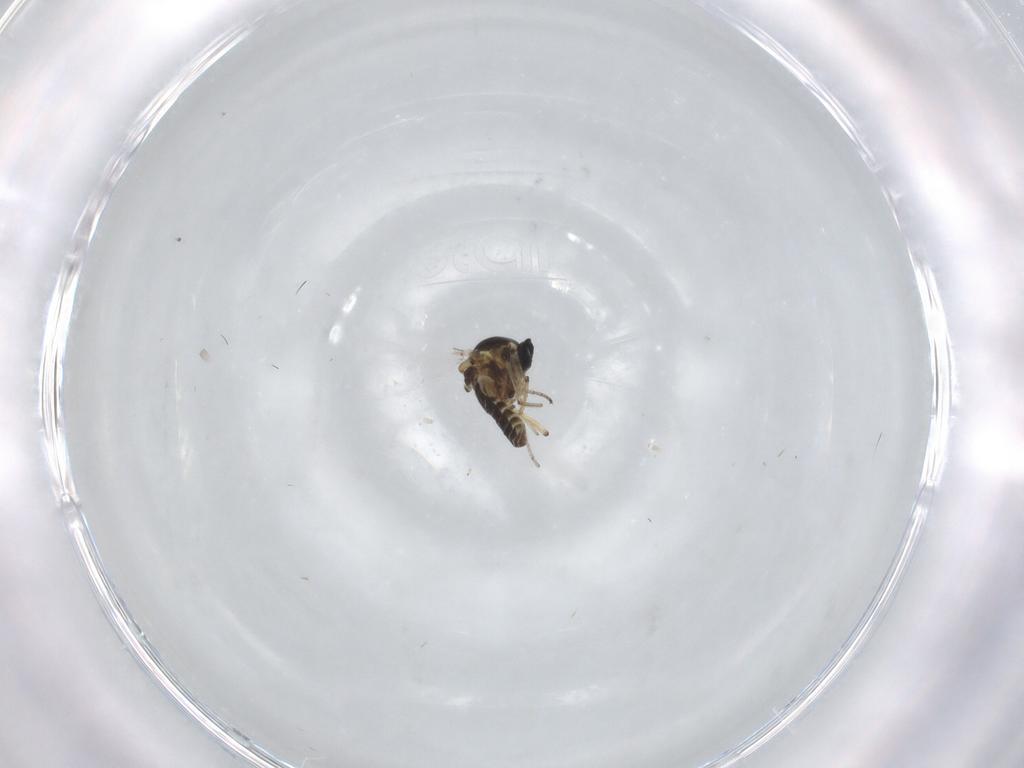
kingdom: Animalia
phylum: Arthropoda
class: Insecta
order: Diptera
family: Ceratopogonidae
